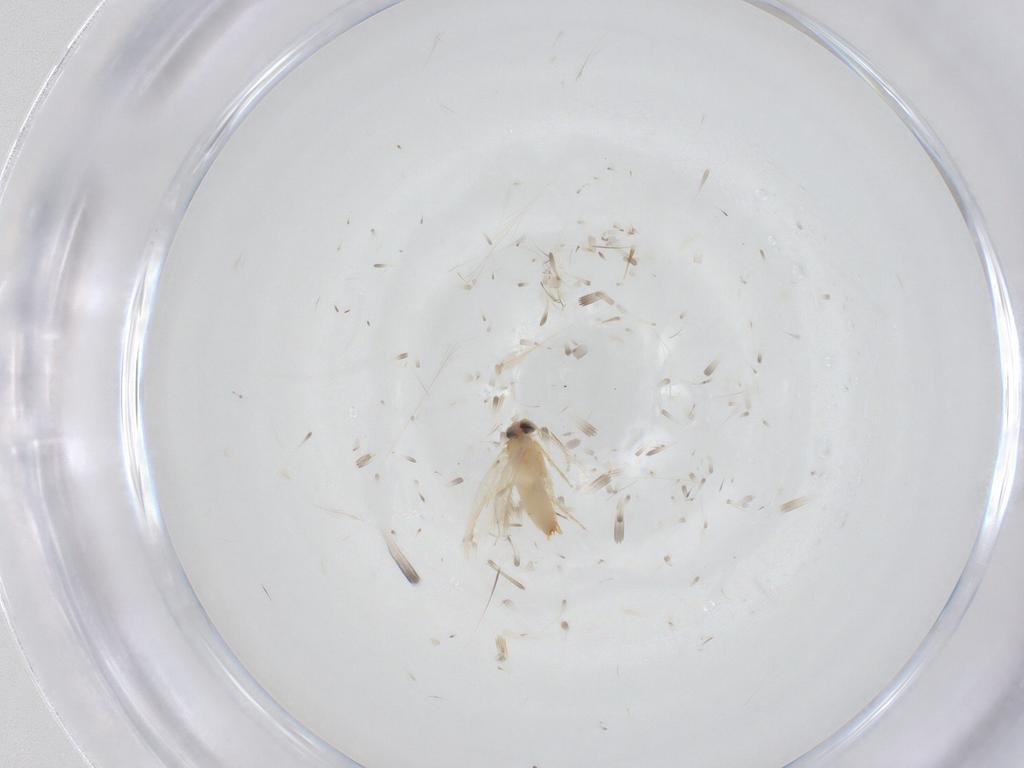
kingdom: Animalia
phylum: Arthropoda
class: Insecta
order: Lepidoptera
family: Crambidae
